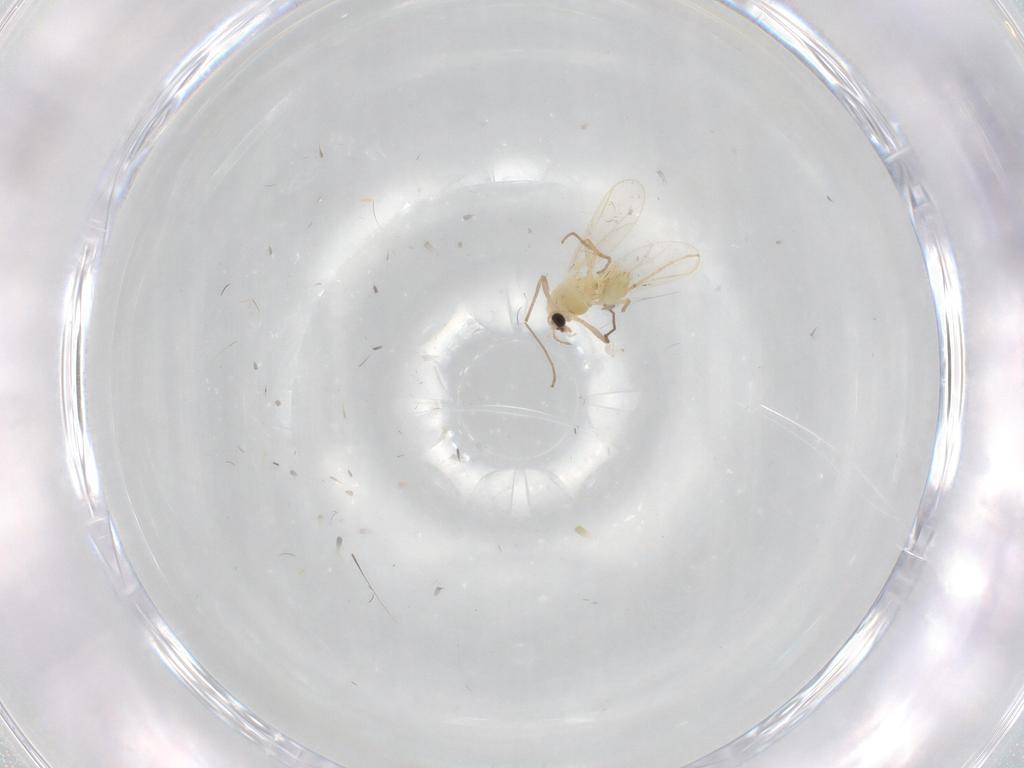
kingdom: Animalia
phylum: Arthropoda
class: Insecta
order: Diptera
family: Chironomidae
